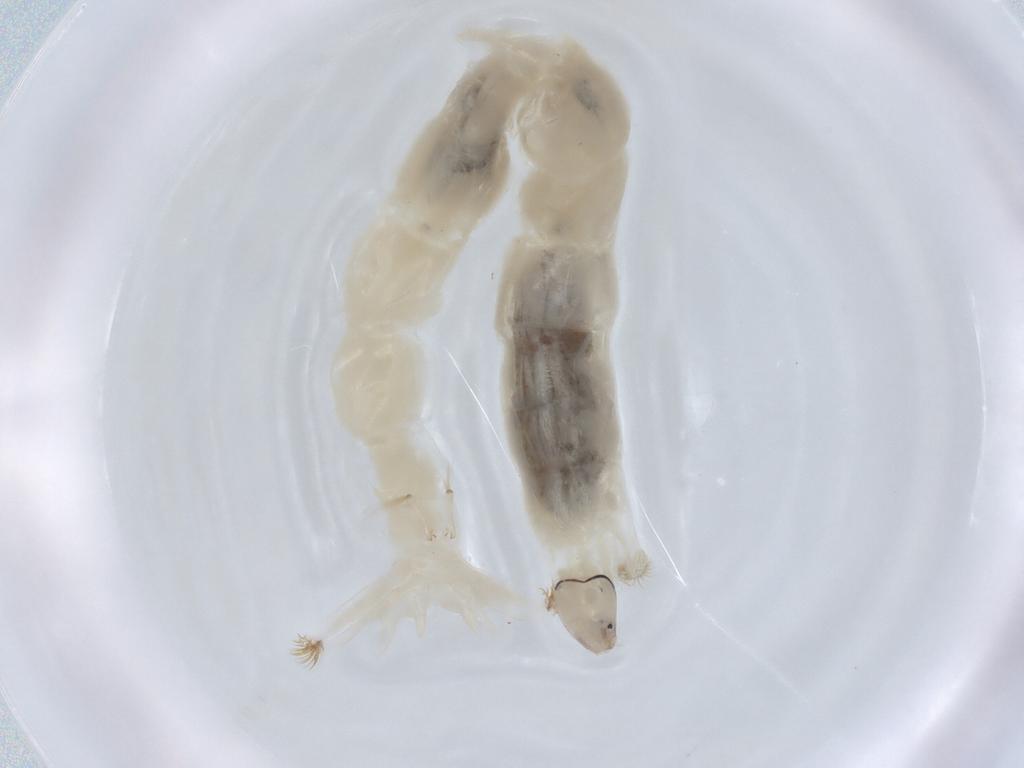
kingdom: Animalia
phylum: Arthropoda
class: Insecta
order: Diptera
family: Chironomidae
